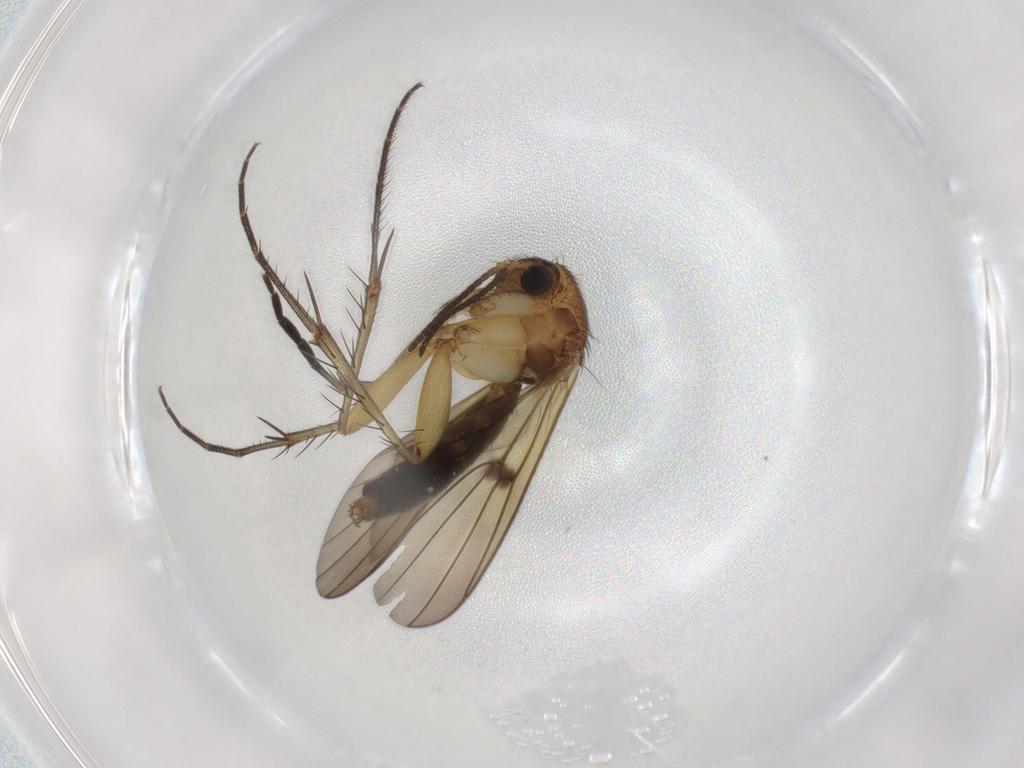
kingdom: Animalia
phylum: Arthropoda
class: Insecta
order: Diptera
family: Mycetophilidae
